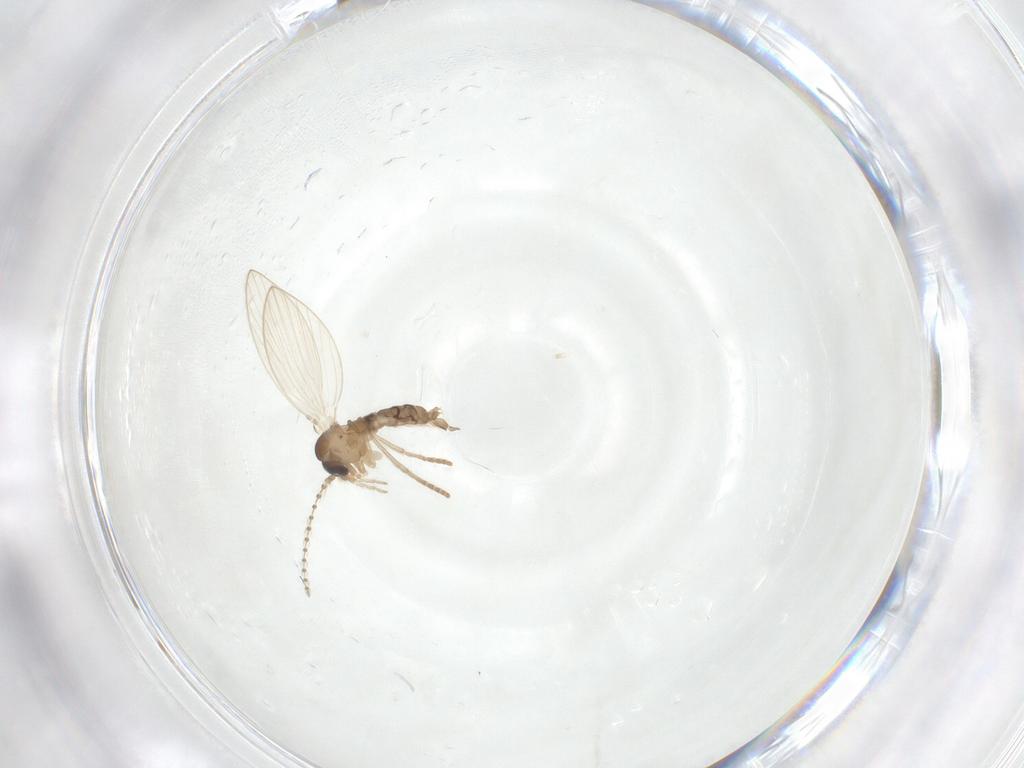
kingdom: Animalia
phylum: Arthropoda
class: Insecta
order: Diptera
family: Psychodidae
